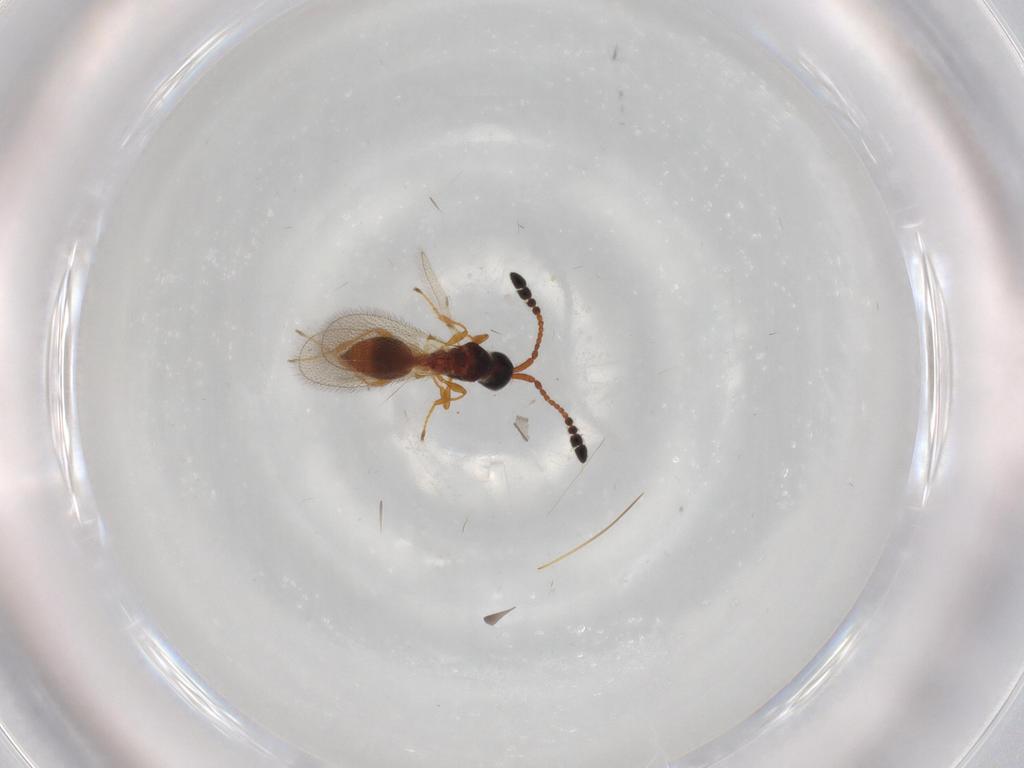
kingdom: Animalia
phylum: Arthropoda
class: Insecta
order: Hymenoptera
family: Diapriidae
